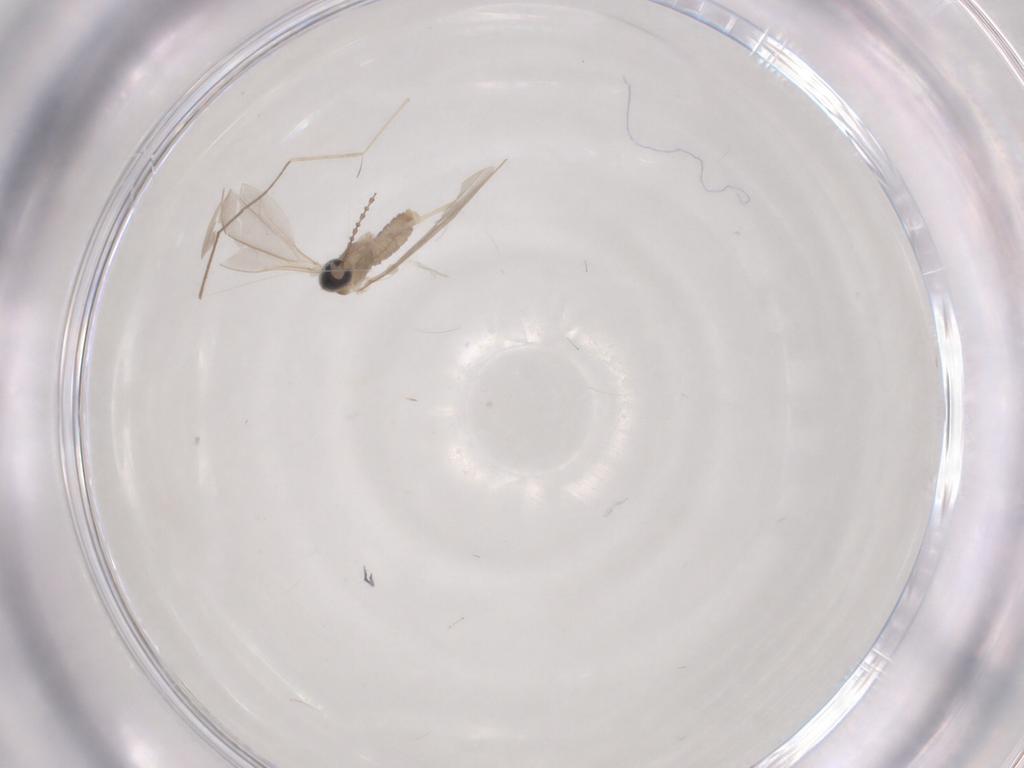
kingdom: Animalia
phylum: Arthropoda
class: Insecta
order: Diptera
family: Cecidomyiidae
